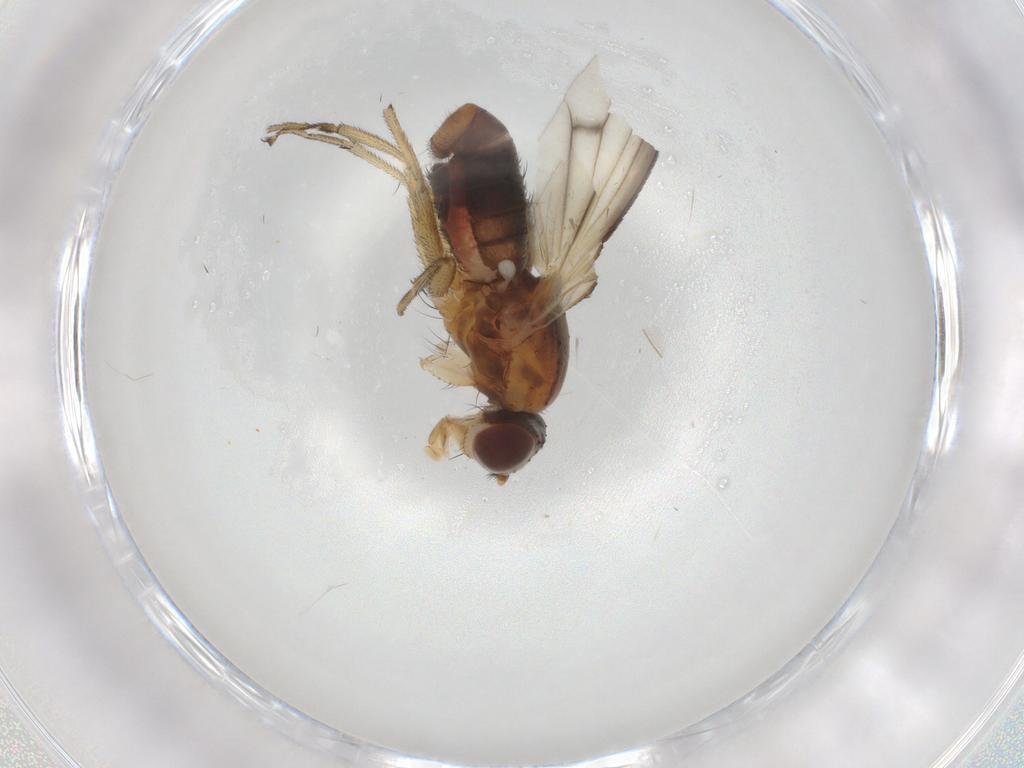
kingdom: Animalia
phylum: Arthropoda
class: Insecta
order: Diptera
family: Heleomyzidae
